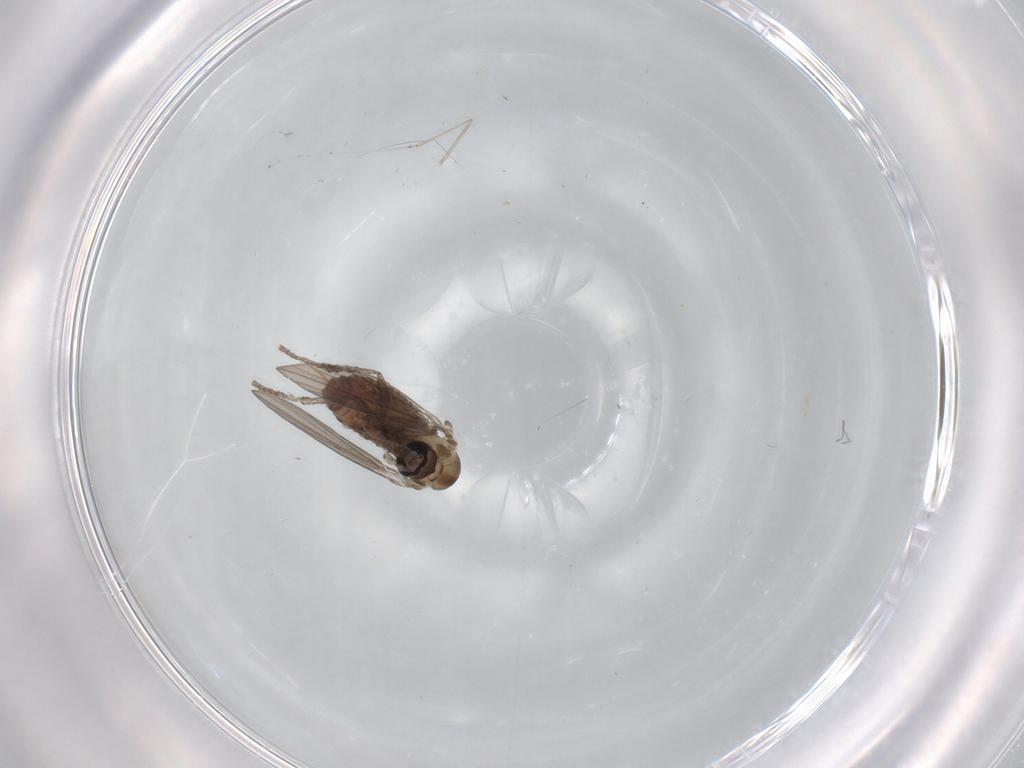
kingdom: Animalia
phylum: Arthropoda
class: Insecta
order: Diptera
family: Psychodidae
